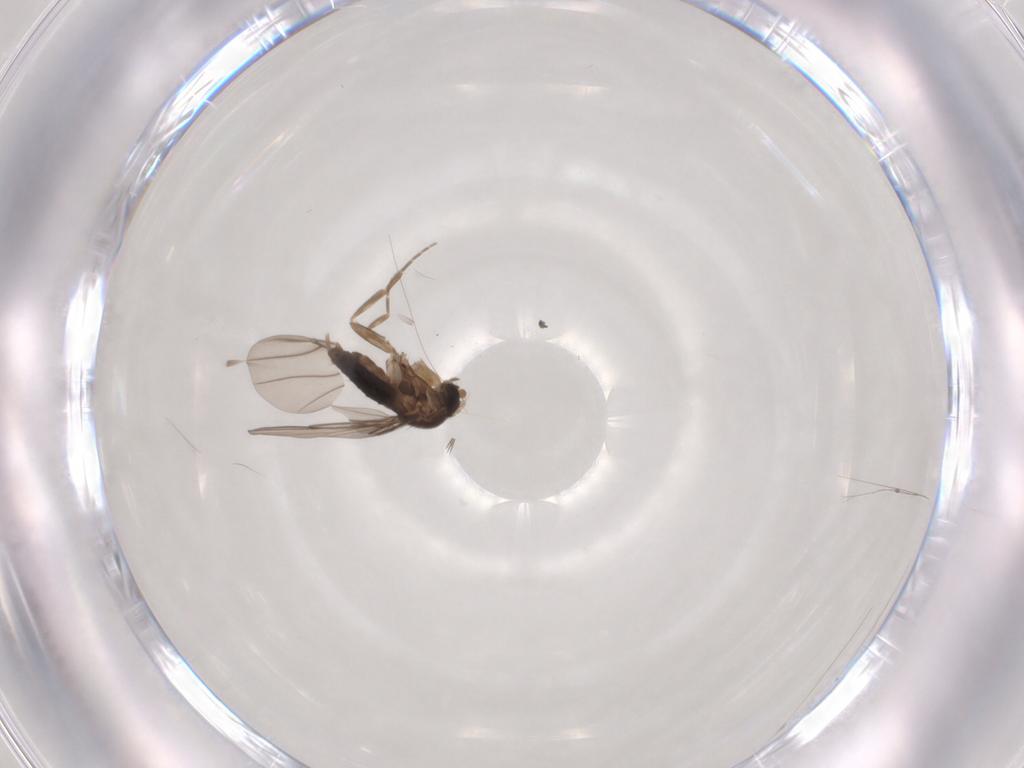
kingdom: Animalia
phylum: Arthropoda
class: Insecta
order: Diptera
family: Phoridae
